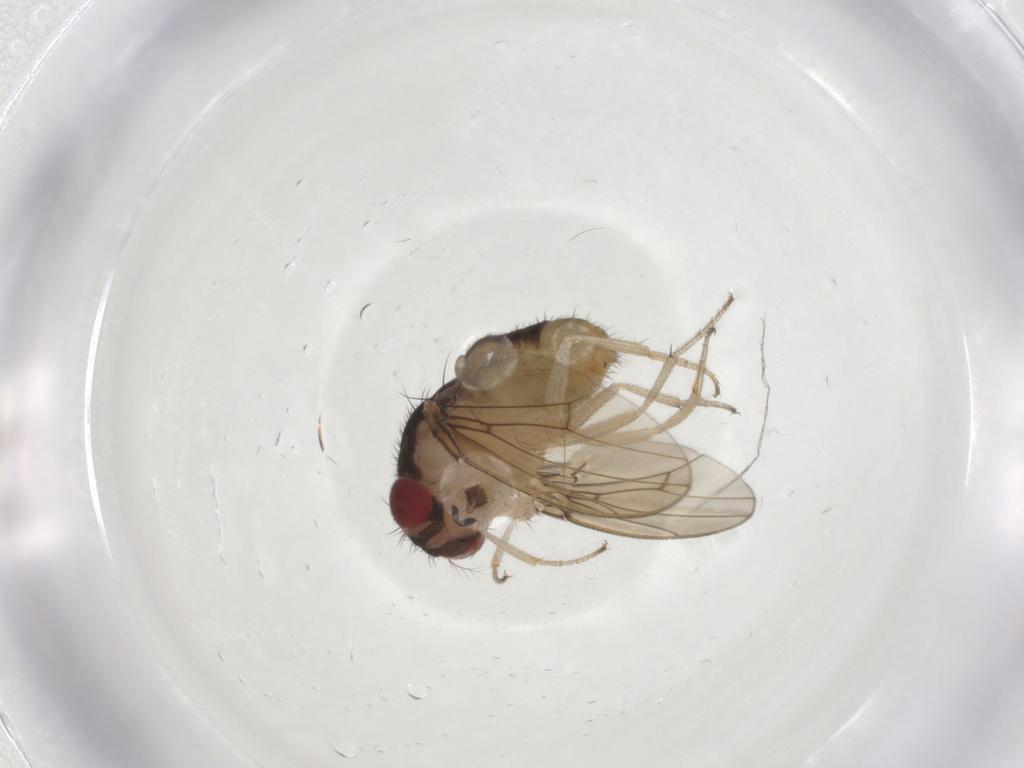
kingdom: Animalia
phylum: Arthropoda
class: Insecta
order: Diptera
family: Drosophilidae
